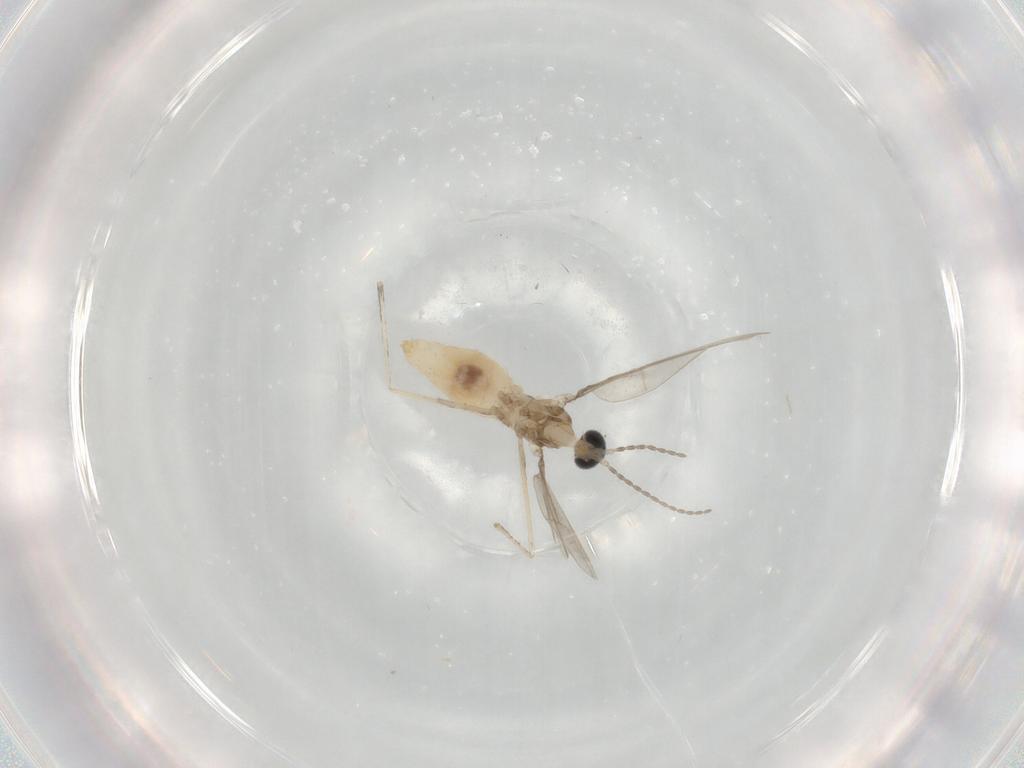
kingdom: Animalia
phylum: Arthropoda
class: Insecta
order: Diptera
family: Cecidomyiidae
